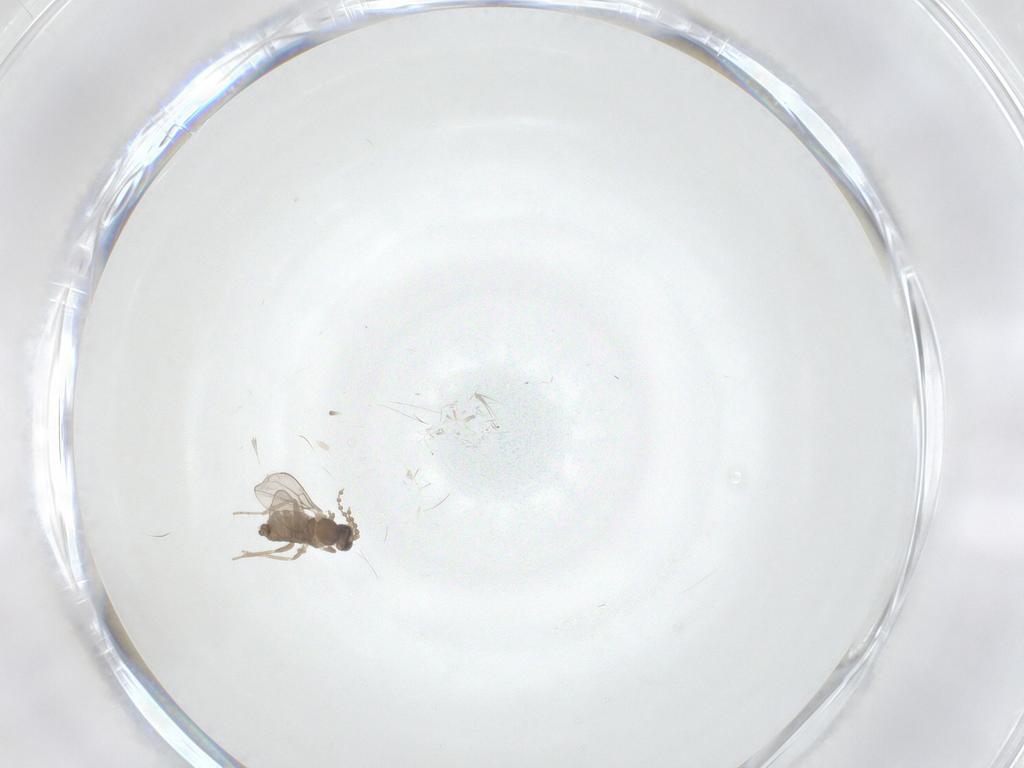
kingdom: Animalia
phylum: Arthropoda
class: Insecta
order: Diptera
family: Cecidomyiidae
